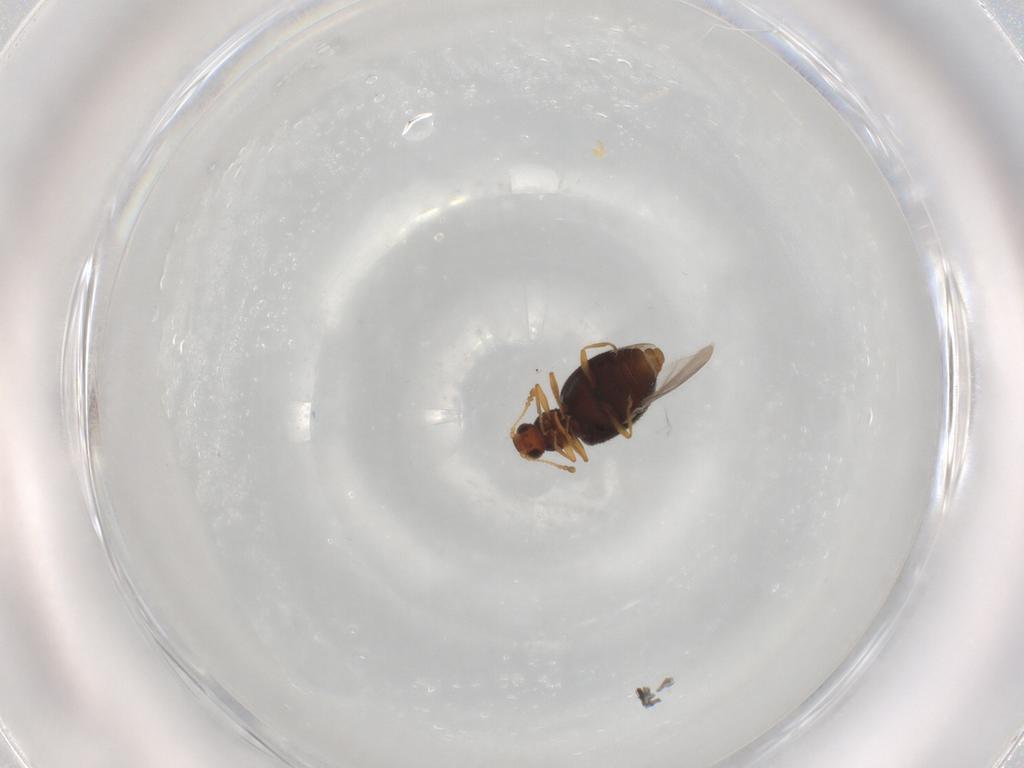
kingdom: Animalia
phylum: Arthropoda
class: Insecta
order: Coleoptera
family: Latridiidae
